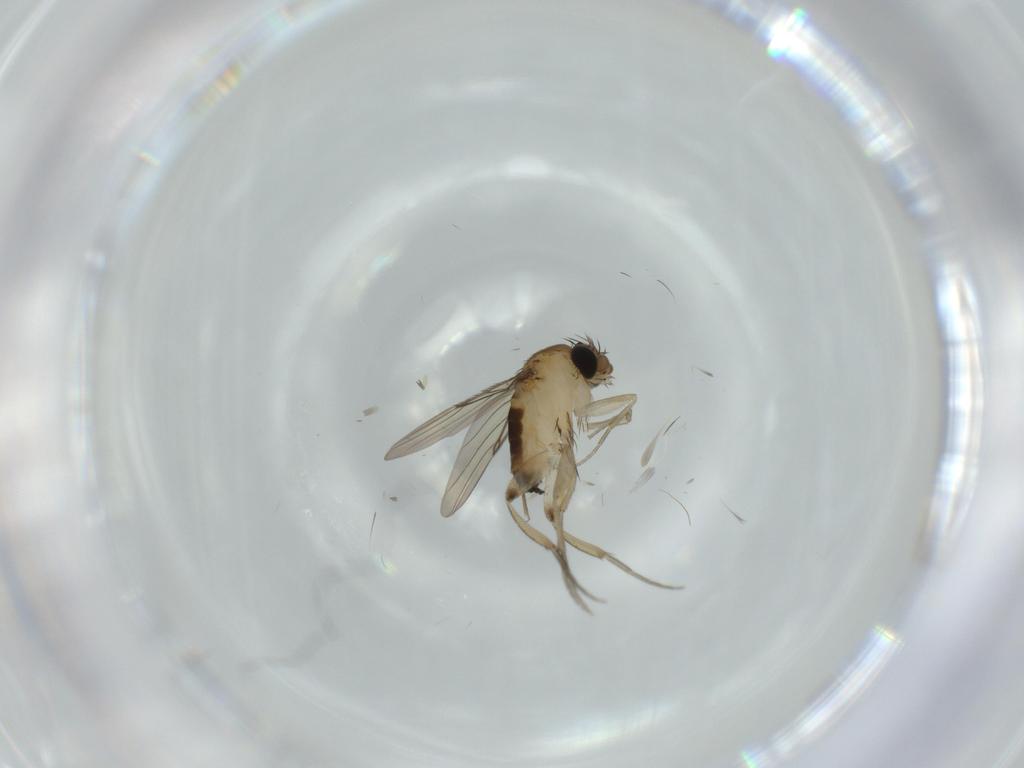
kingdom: Animalia
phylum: Arthropoda
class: Insecta
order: Diptera
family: Phoridae
